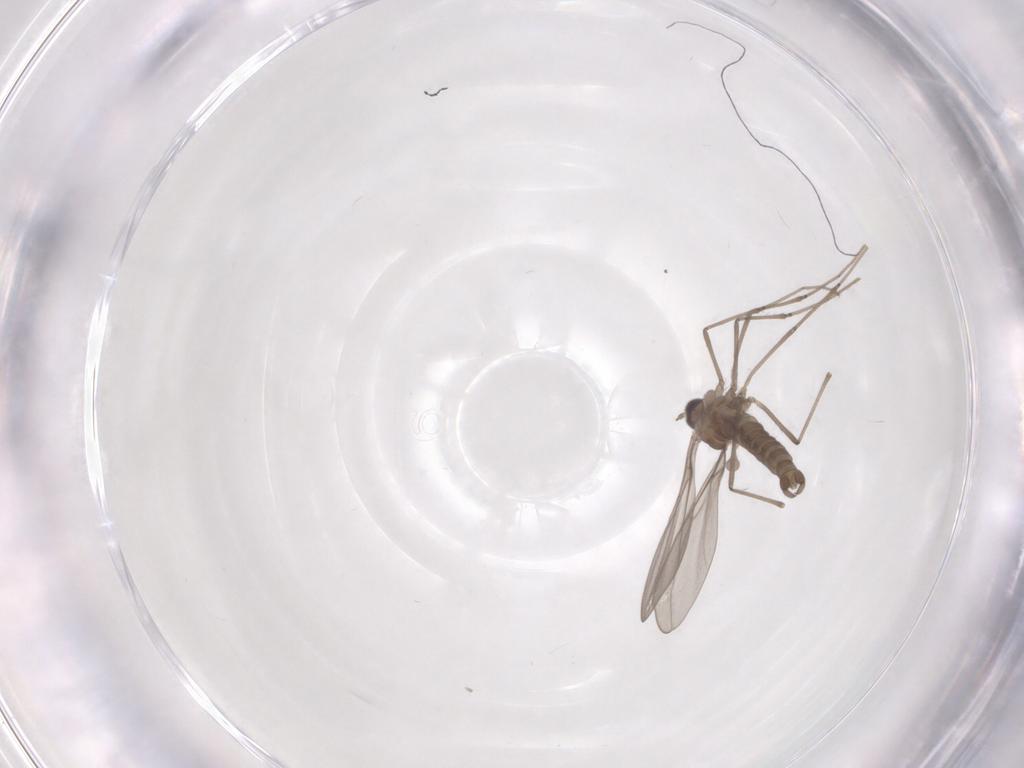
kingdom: Animalia
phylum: Arthropoda
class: Insecta
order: Diptera
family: Cecidomyiidae
